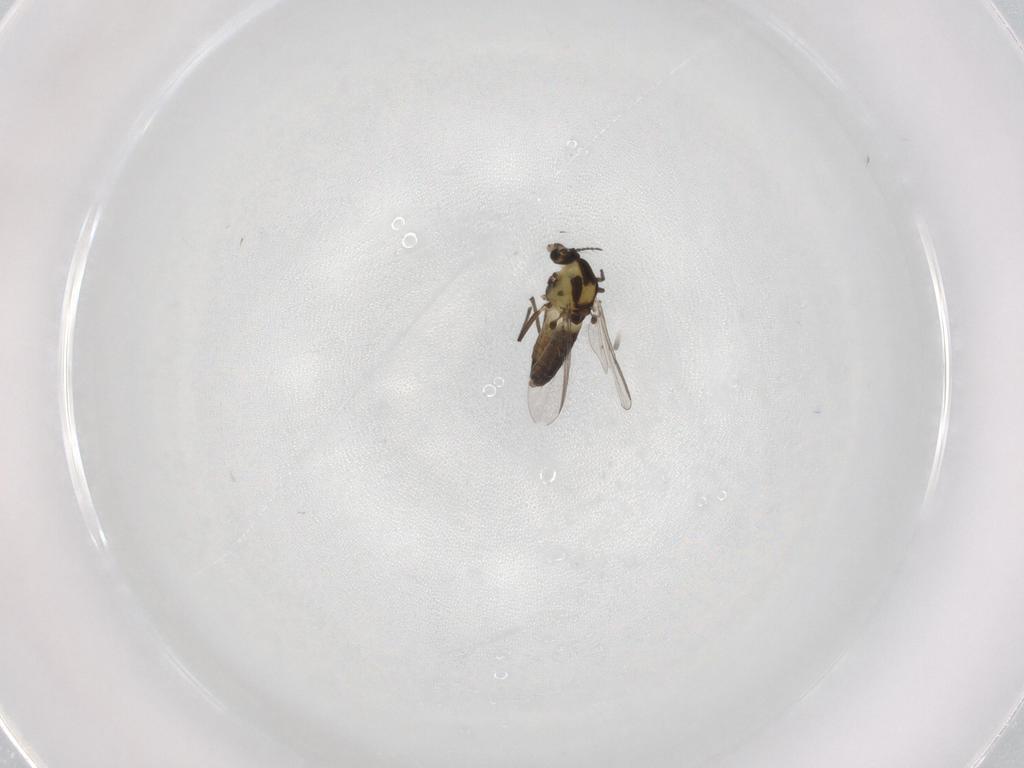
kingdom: Animalia
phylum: Arthropoda
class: Insecta
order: Diptera
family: Chironomidae
